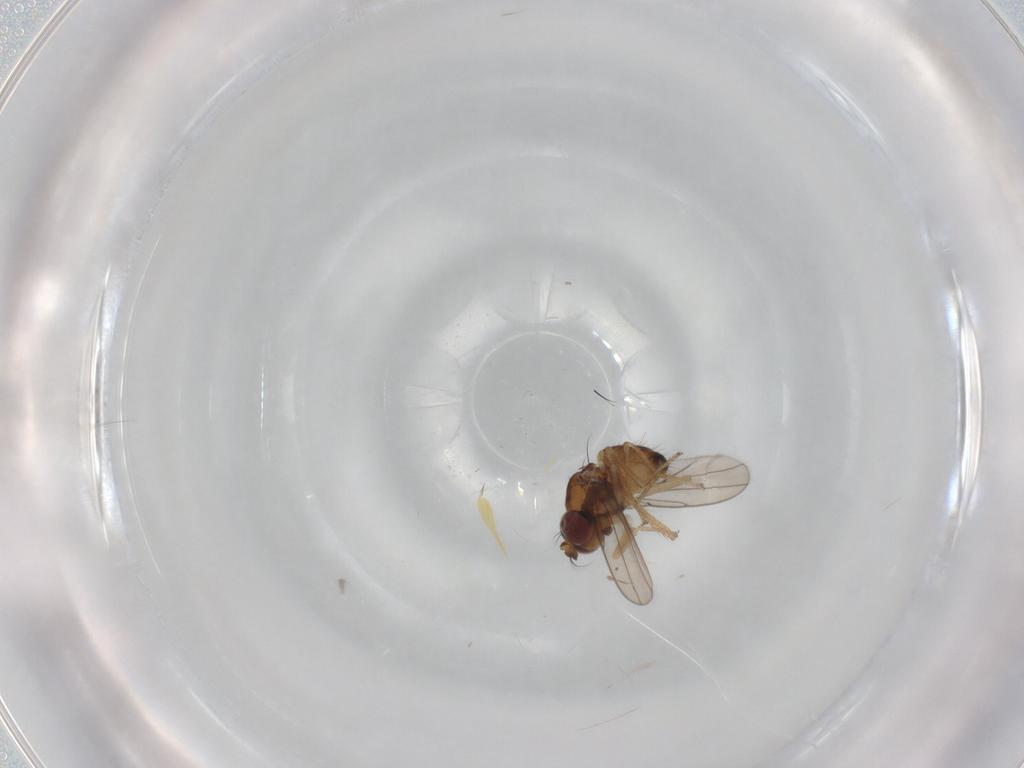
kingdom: Animalia
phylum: Arthropoda
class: Insecta
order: Diptera
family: Ephydridae
